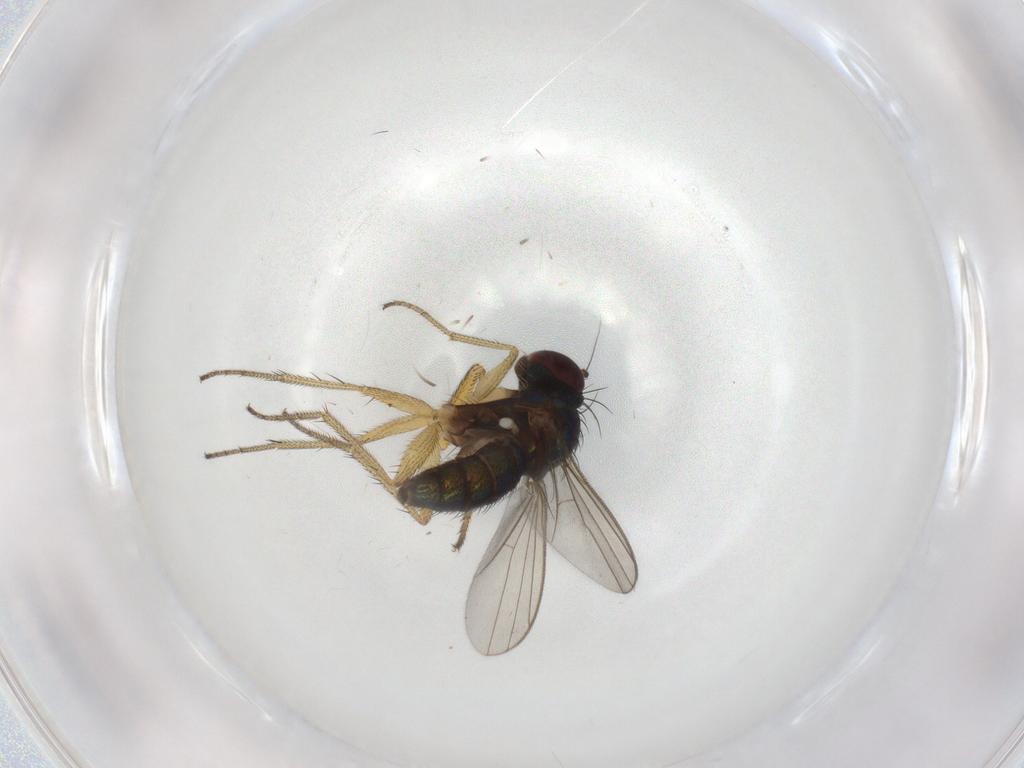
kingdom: Animalia
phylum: Arthropoda
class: Insecta
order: Diptera
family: Dolichopodidae
